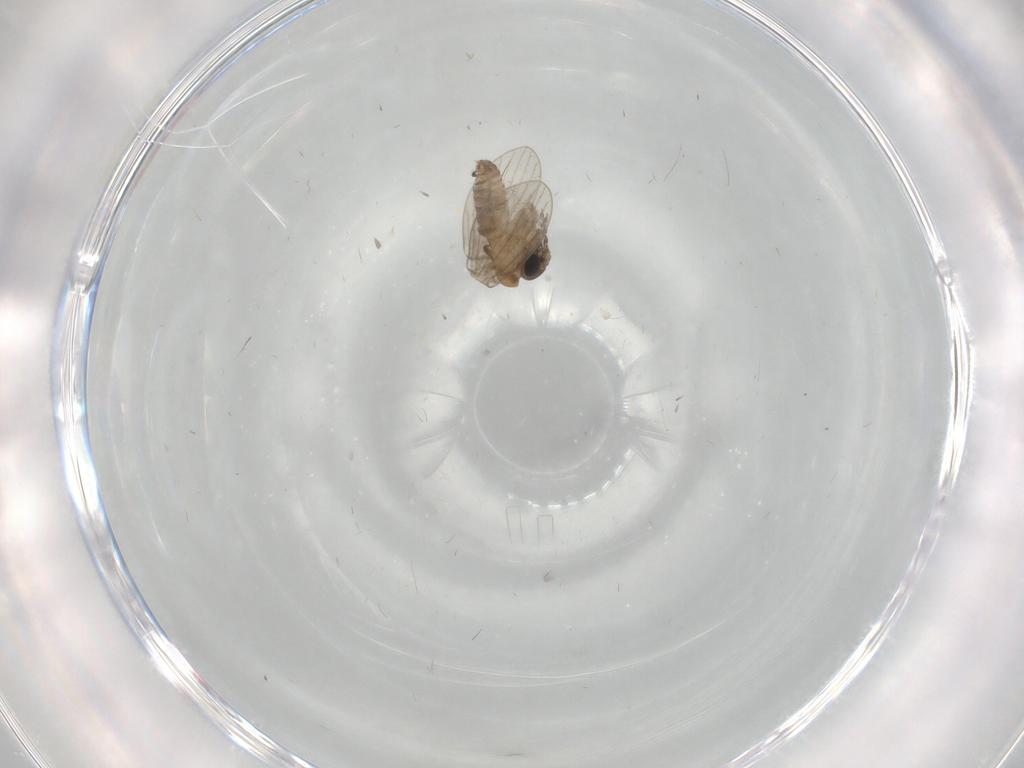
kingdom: Animalia
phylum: Arthropoda
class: Insecta
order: Diptera
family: Psychodidae
